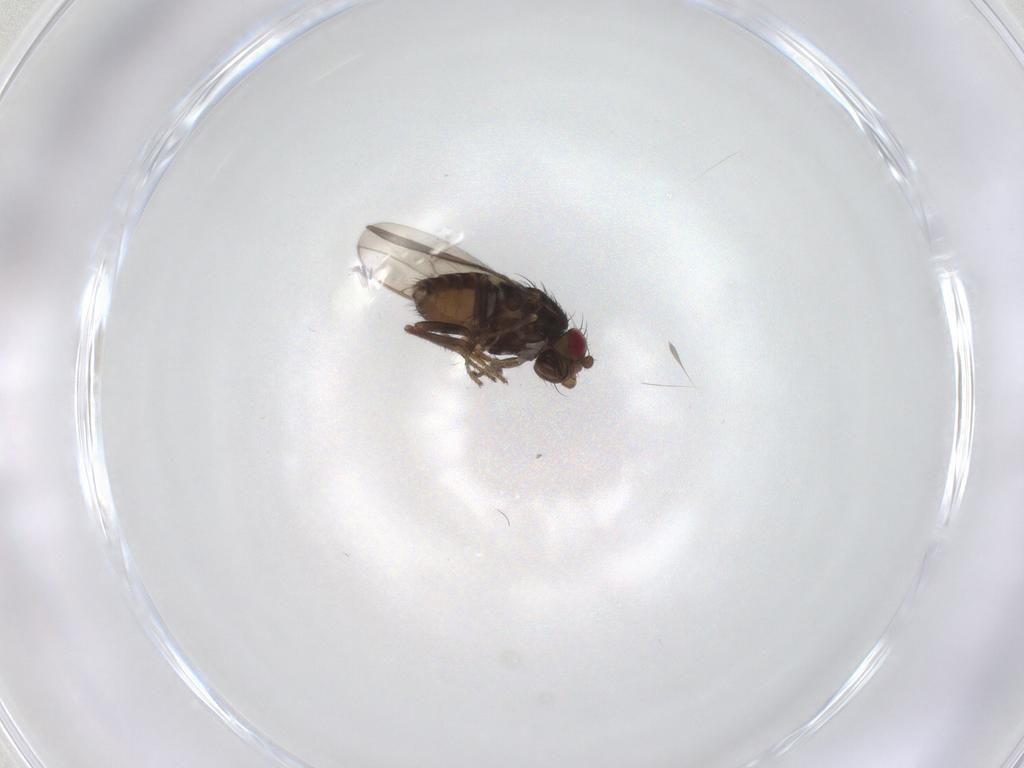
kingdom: Animalia
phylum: Arthropoda
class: Insecta
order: Diptera
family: Sphaeroceridae
